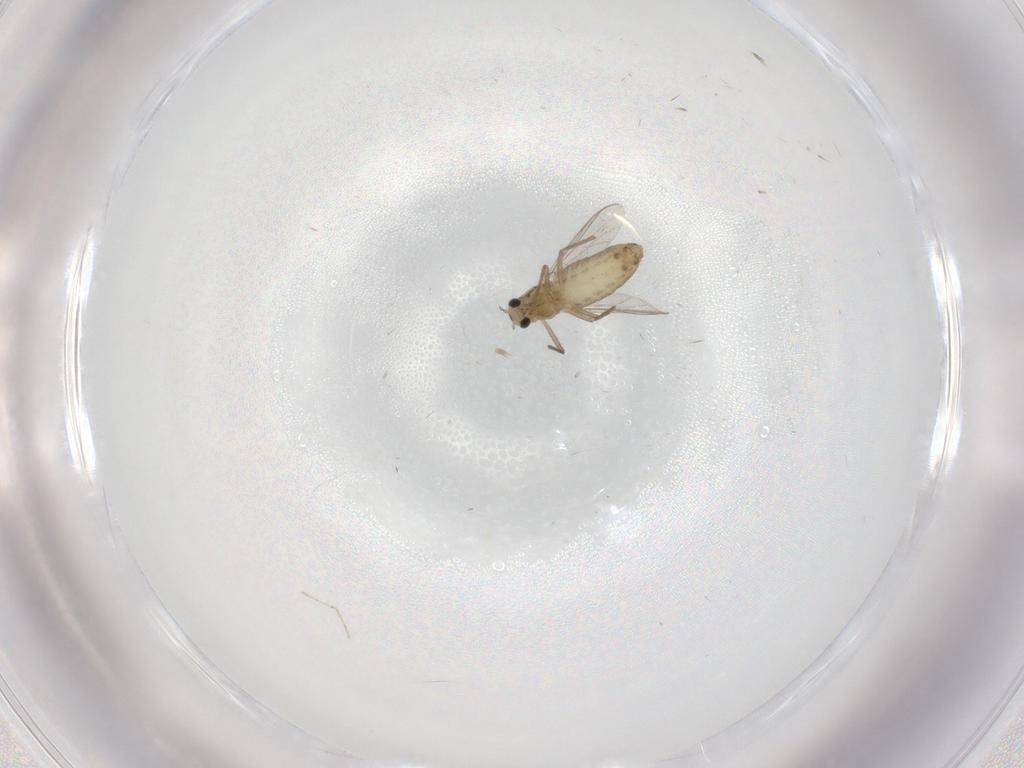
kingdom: Animalia
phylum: Arthropoda
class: Insecta
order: Diptera
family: Chironomidae
